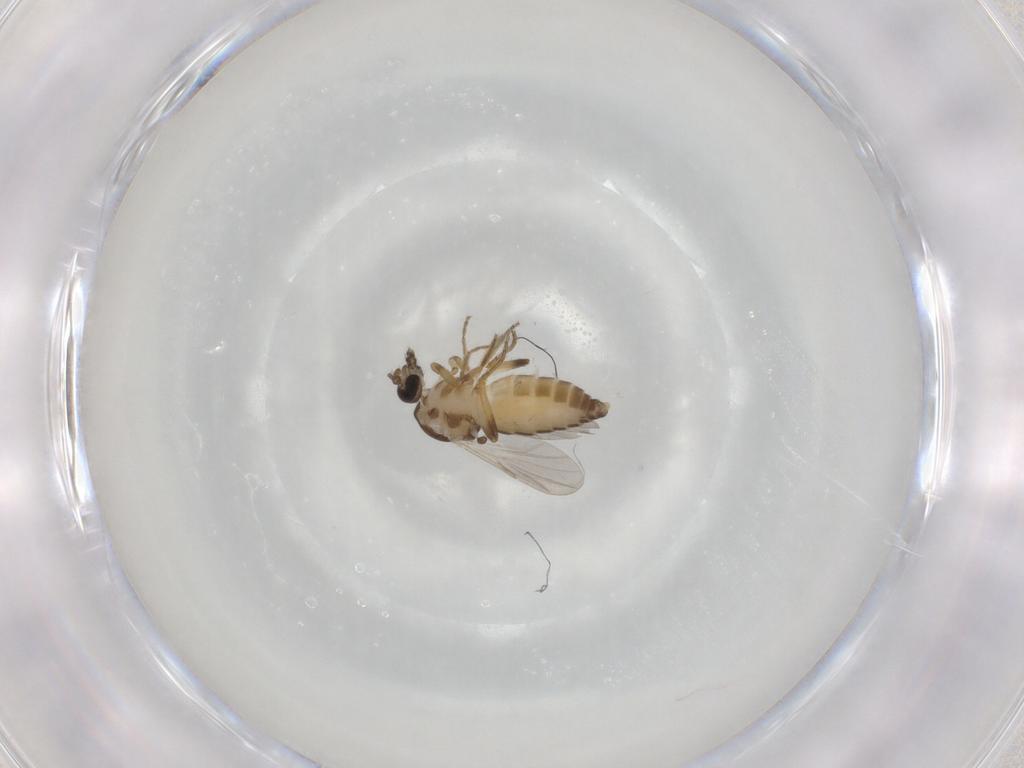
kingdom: Animalia
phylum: Arthropoda
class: Insecta
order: Diptera
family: Ceratopogonidae
